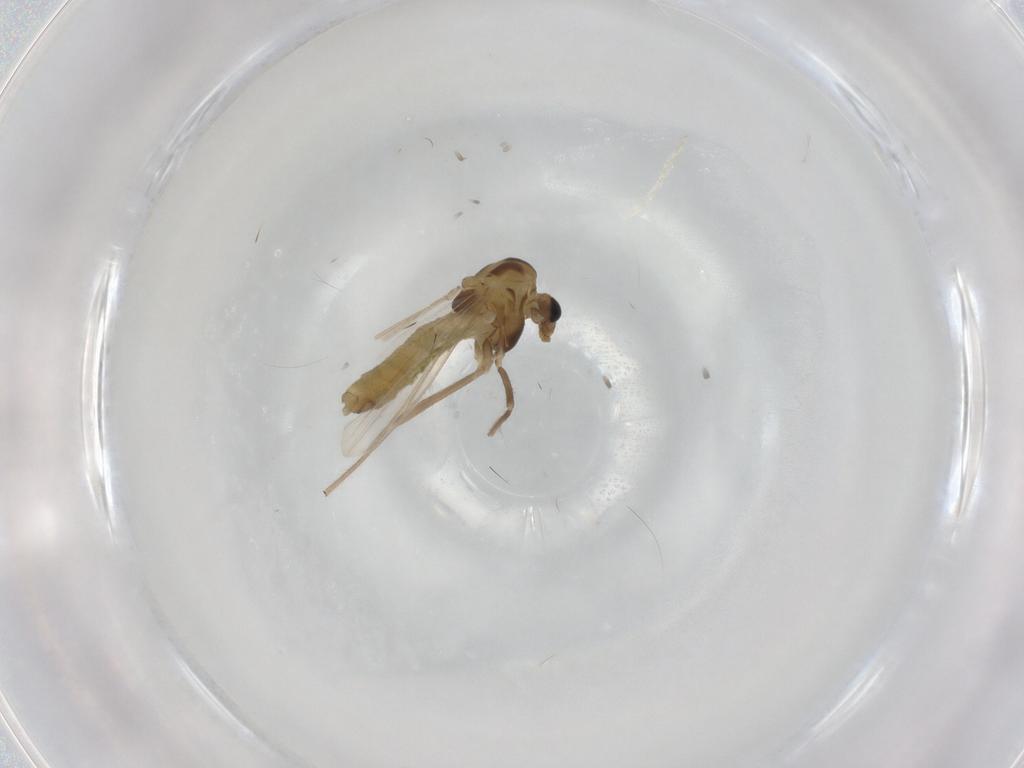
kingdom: Animalia
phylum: Arthropoda
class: Insecta
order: Diptera
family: Chironomidae
